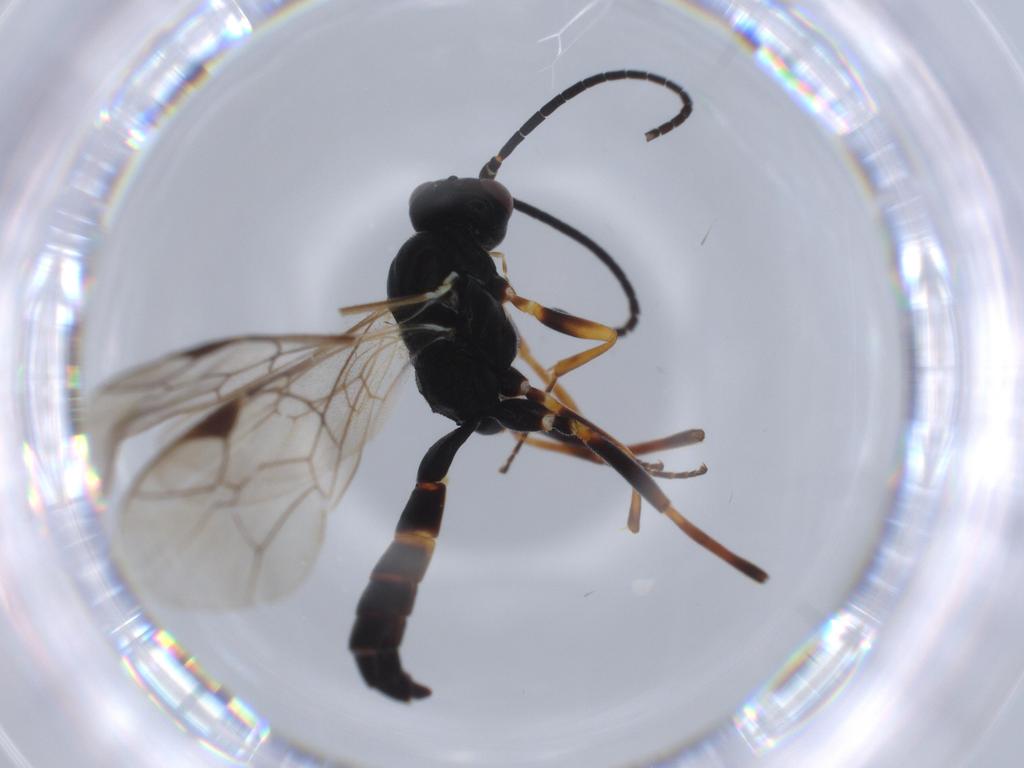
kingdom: Animalia
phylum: Arthropoda
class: Insecta
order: Hymenoptera
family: Ichneumonidae
